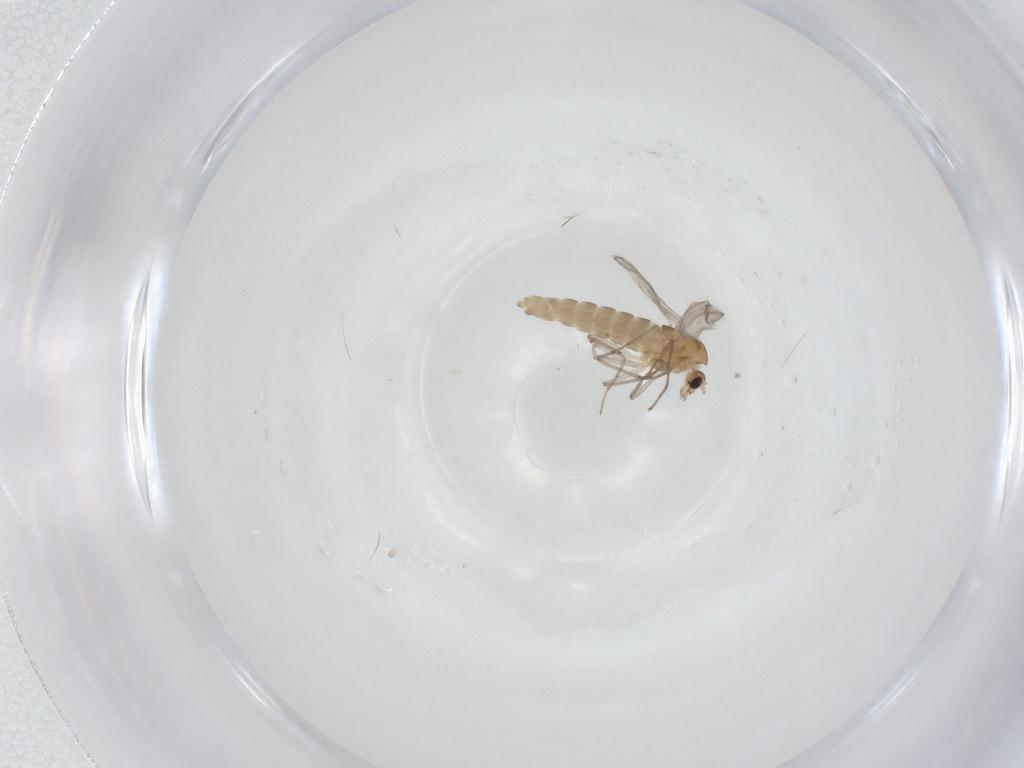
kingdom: Animalia
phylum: Arthropoda
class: Insecta
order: Diptera
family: Chironomidae
